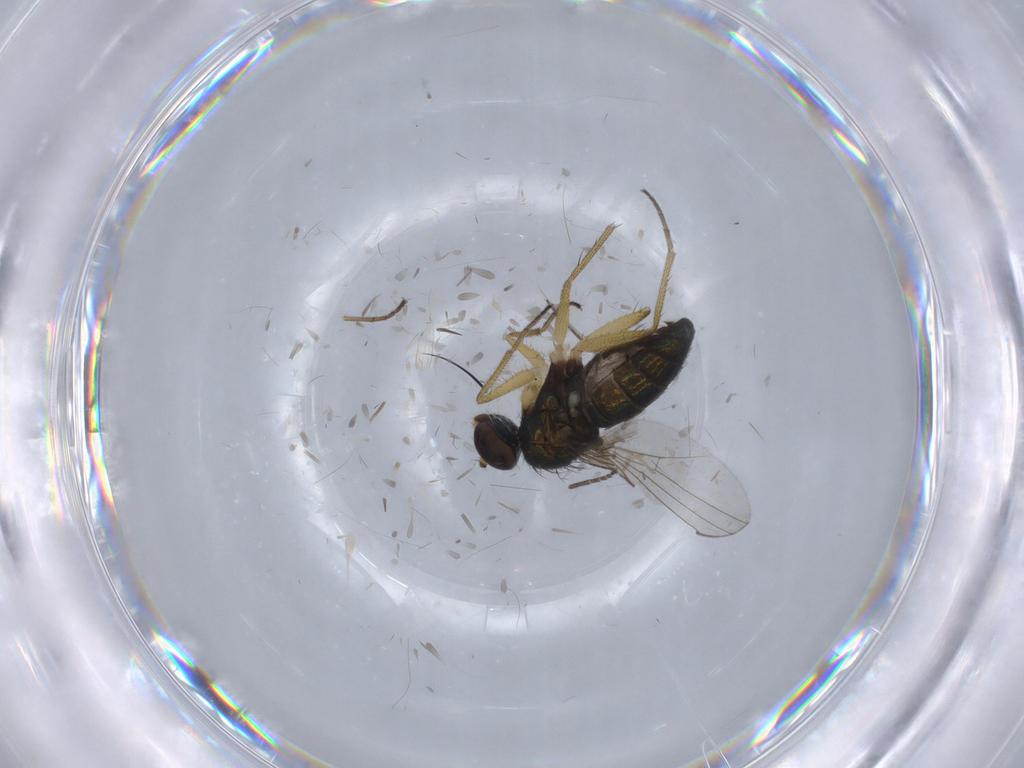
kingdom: Animalia
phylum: Arthropoda
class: Insecta
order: Diptera
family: Chironomidae
